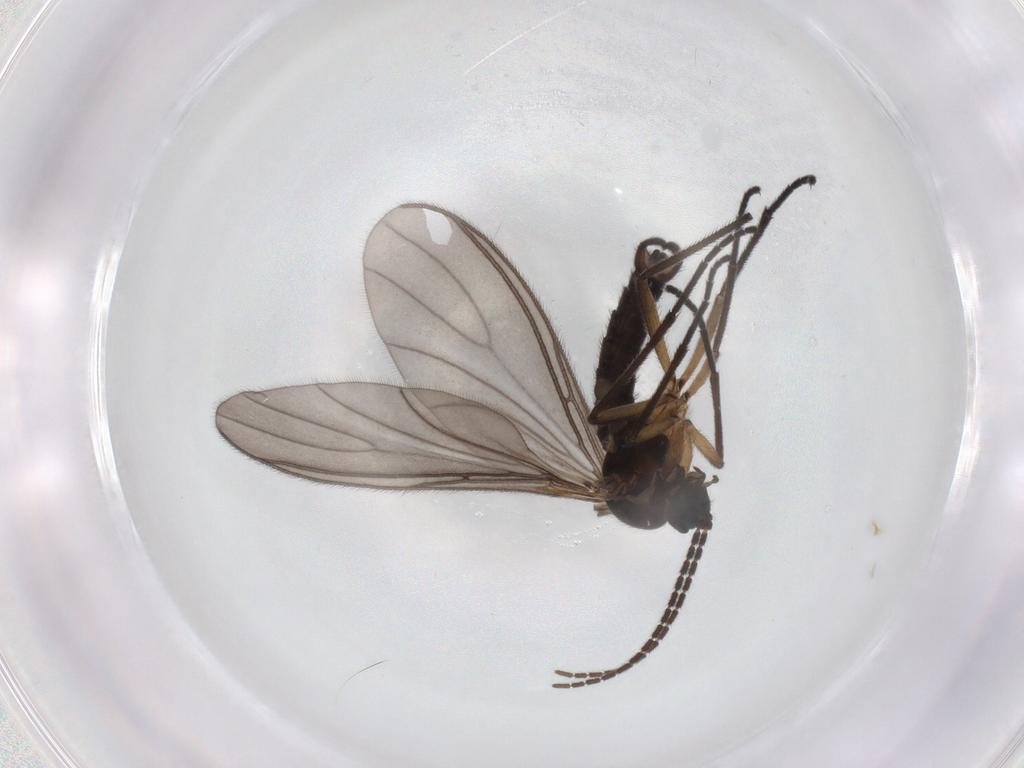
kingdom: Animalia
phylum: Arthropoda
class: Insecta
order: Diptera
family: Sciaridae
